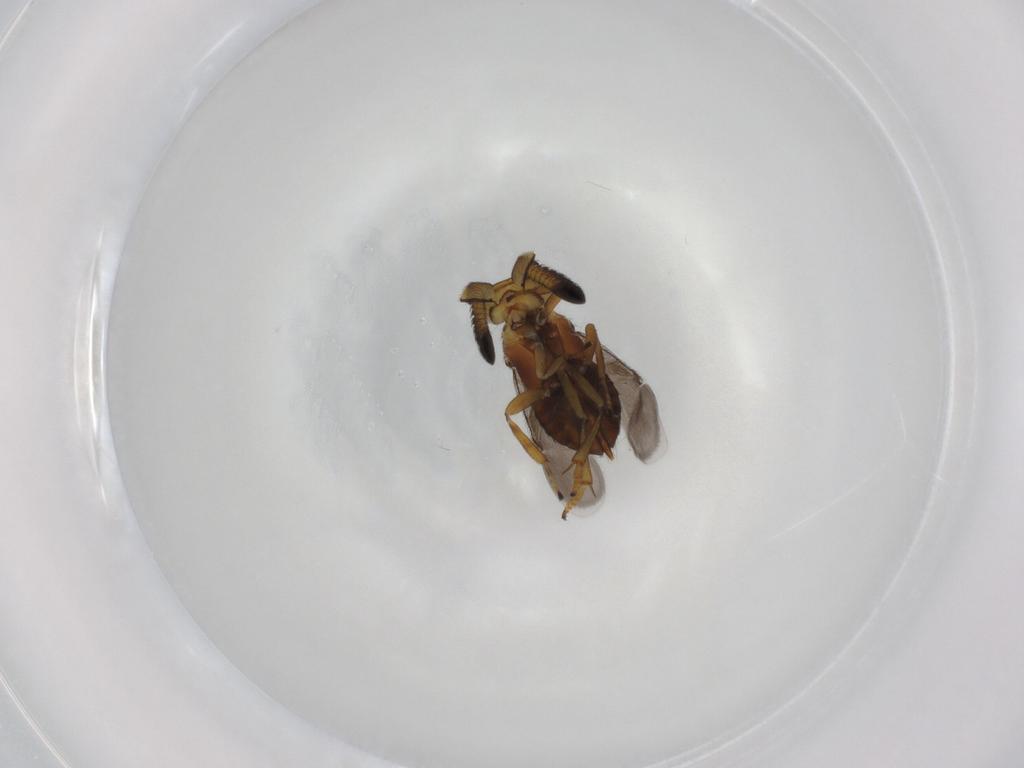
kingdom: Animalia
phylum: Arthropoda
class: Insecta
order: Hymenoptera
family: Encyrtidae
